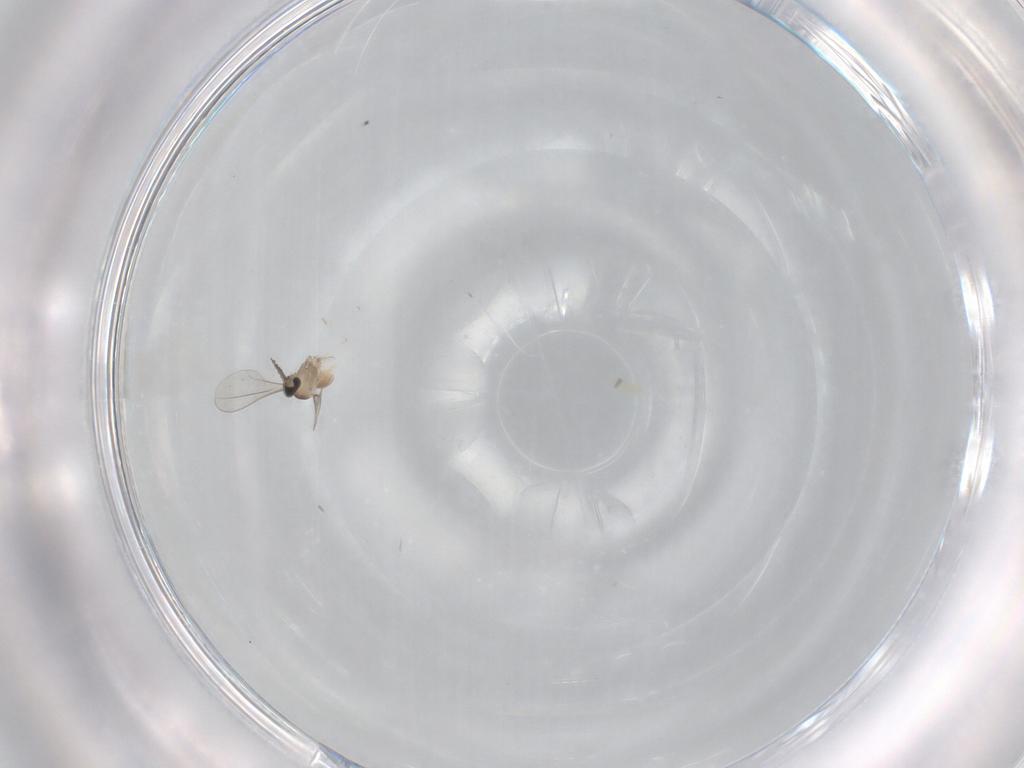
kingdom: Animalia
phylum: Arthropoda
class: Insecta
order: Diptera
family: Cecidomyiidae
